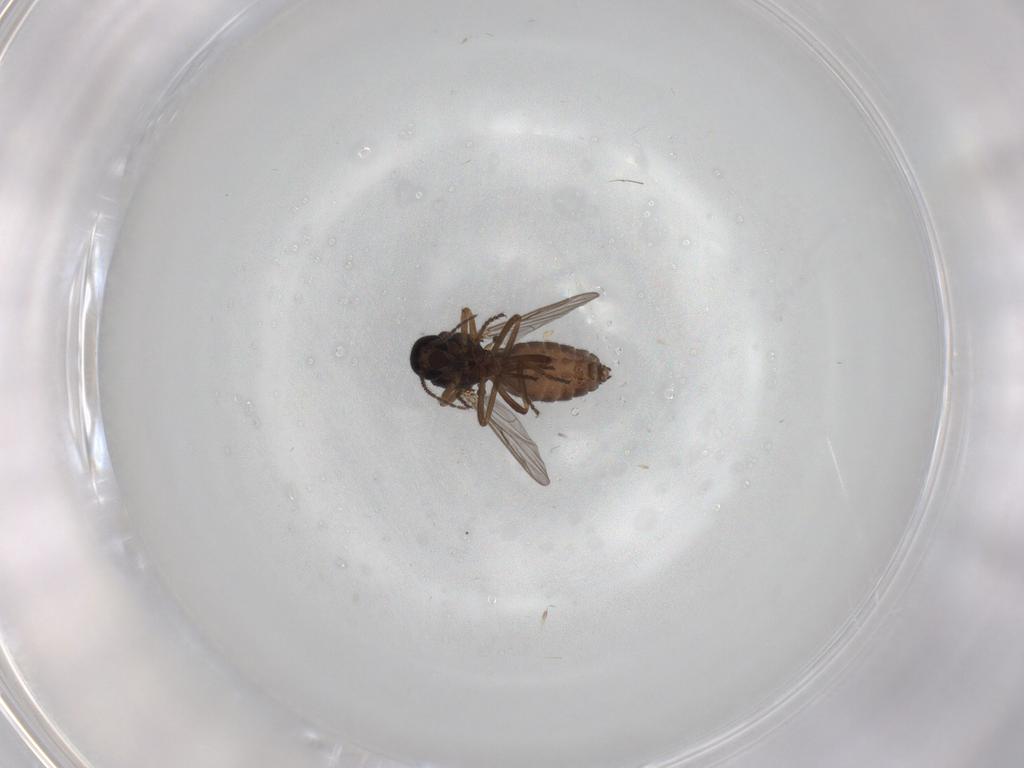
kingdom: Animalia
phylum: Arthropoda
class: Insecta
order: Diptera
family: Ceratopogonidae
